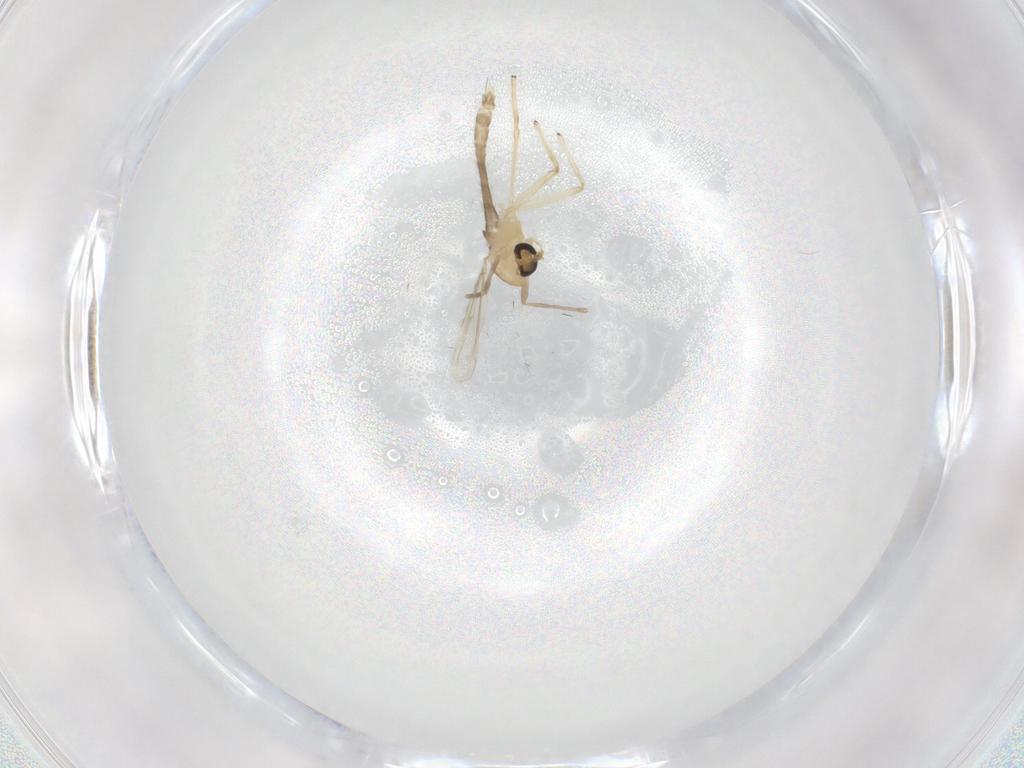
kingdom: Animalia
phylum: Arthropoda
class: Insecta
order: Diptera
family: Chironomidae
